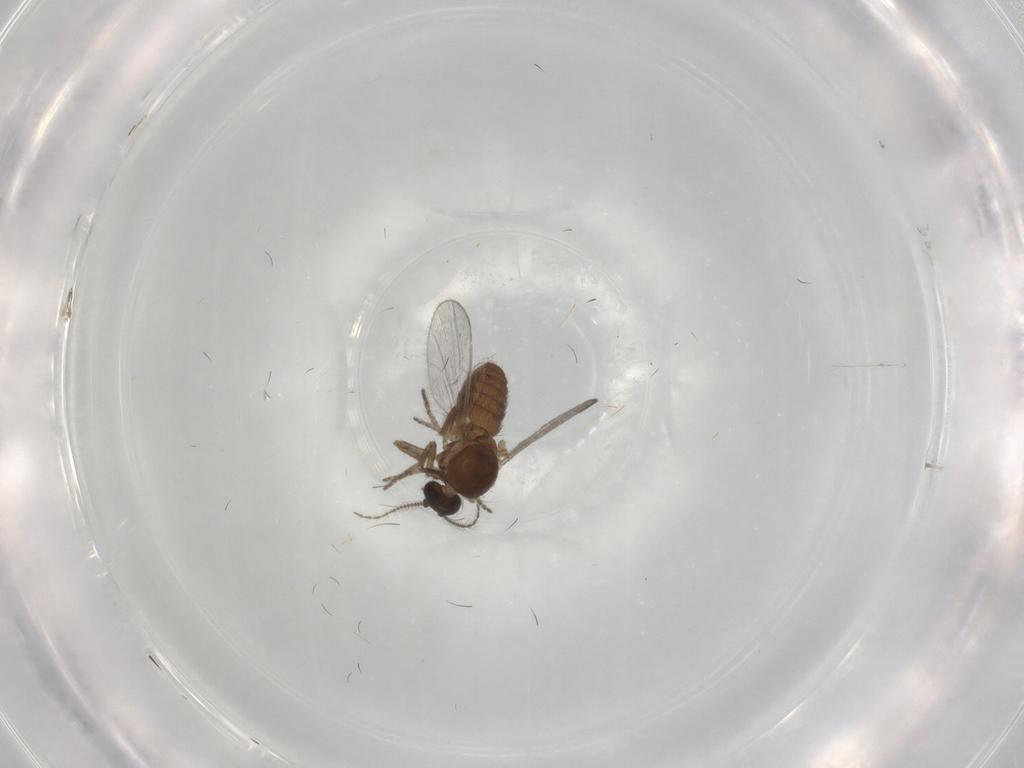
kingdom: Animalia
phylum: Arthropoda
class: Insecta
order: Diptera
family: Ceratopogonidae
